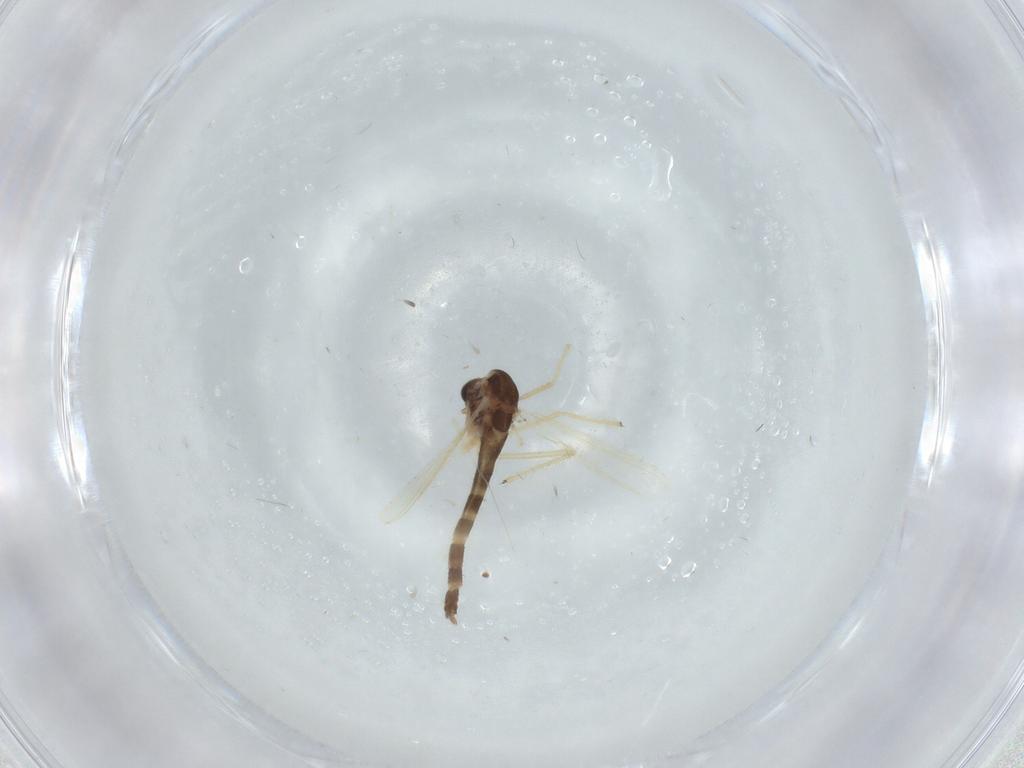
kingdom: Animalia
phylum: Arthropoda
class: Insecta
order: Diptera
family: Chironomidae
